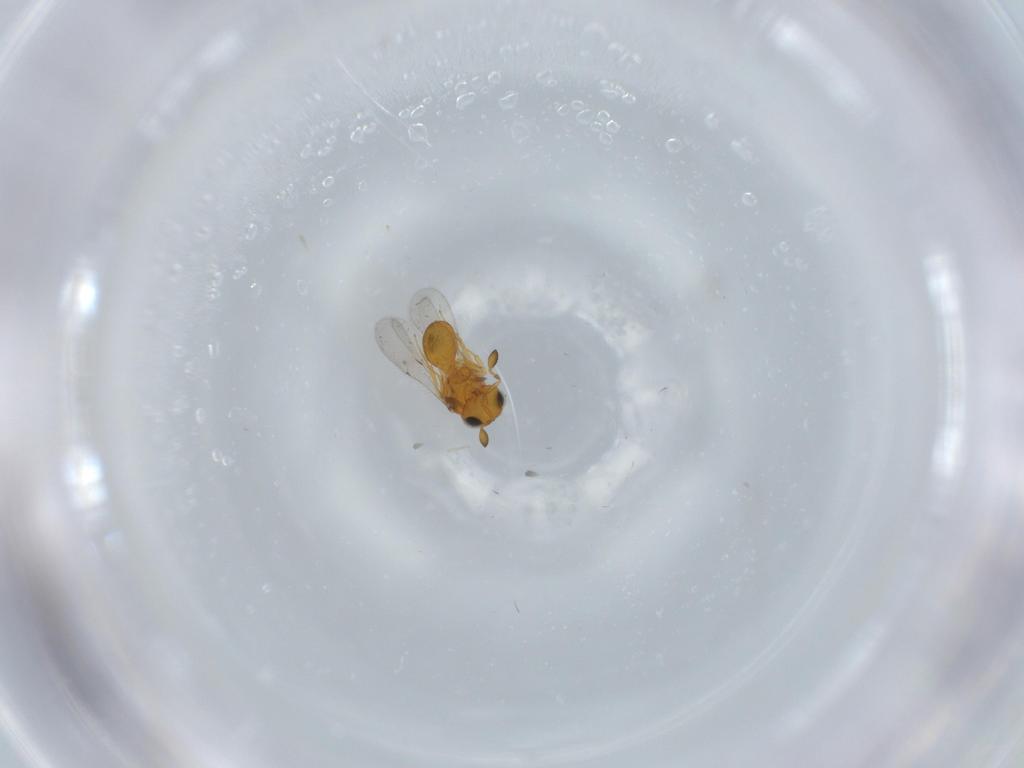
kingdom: Animalia
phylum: Arthropoda
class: Insecta
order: Hymenoptera
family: Scelionidae
